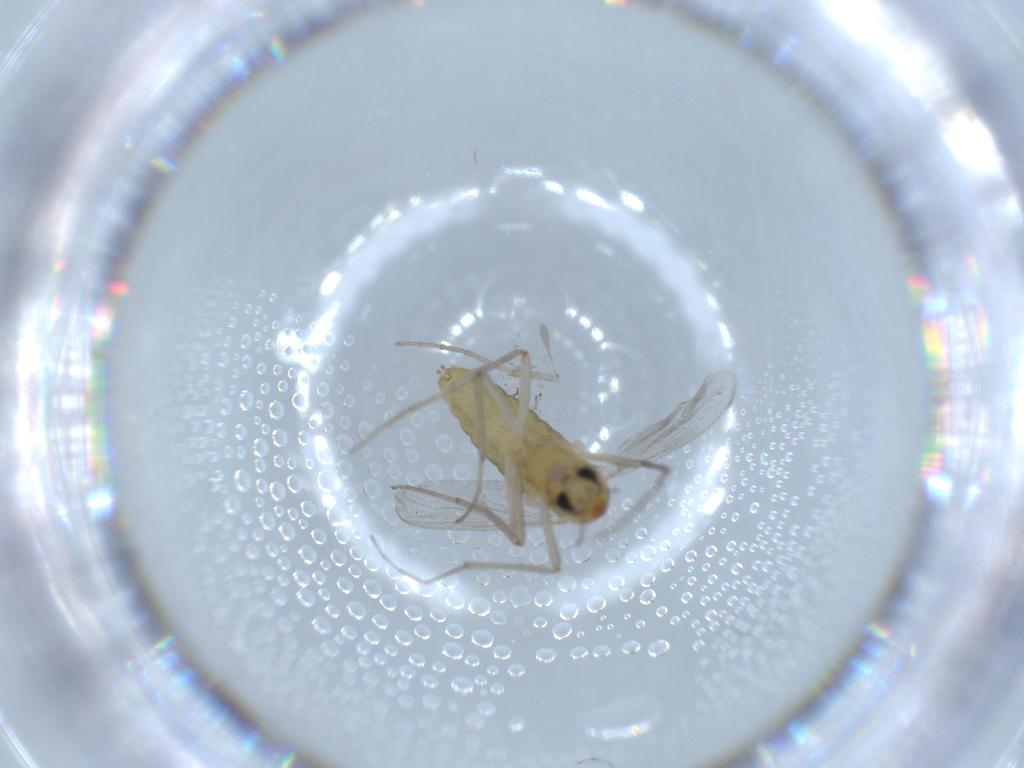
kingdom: Animalia
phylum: Arthropoda
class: Insecta
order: Diptera
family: Chironomidae
